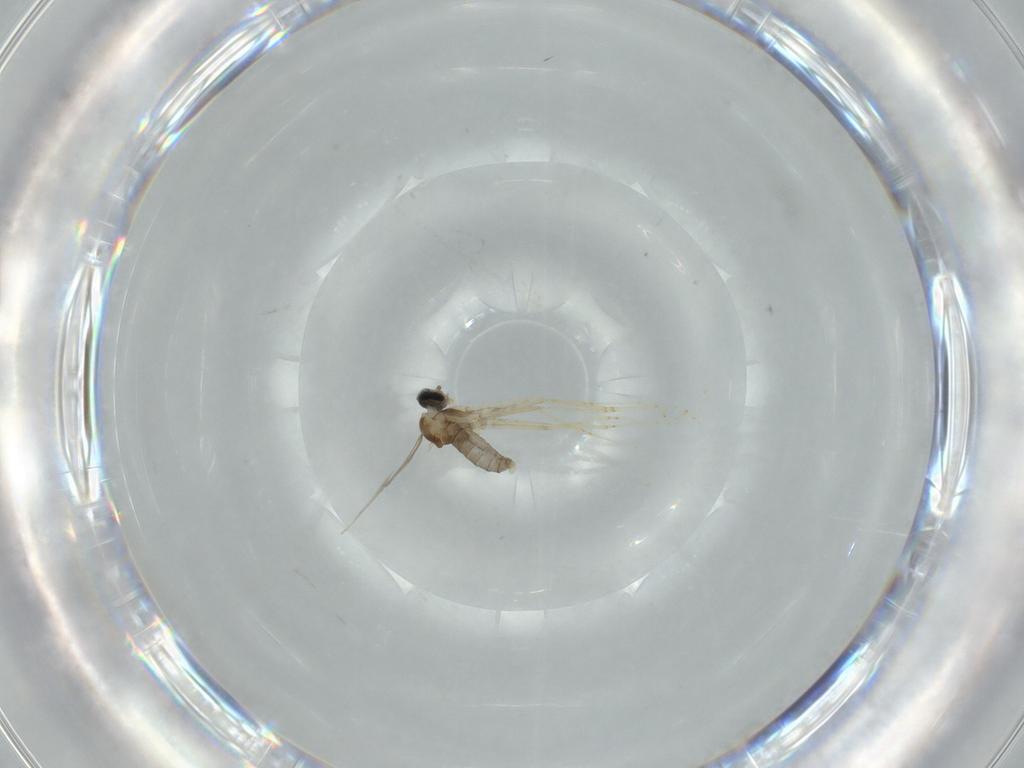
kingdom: Animalia
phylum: Arthropoda
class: Insecta
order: Diptera
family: Cecidomyiidae
